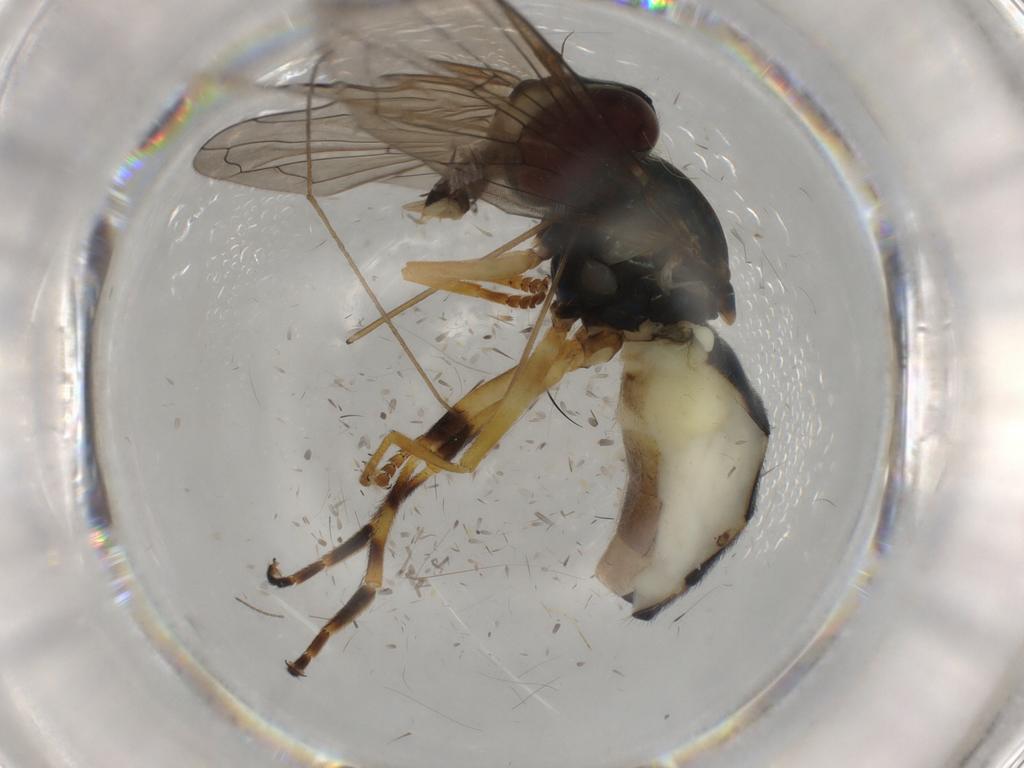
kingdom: Animalia
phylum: Arthropoda
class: Insecta
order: Diptera
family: Syrphidae
